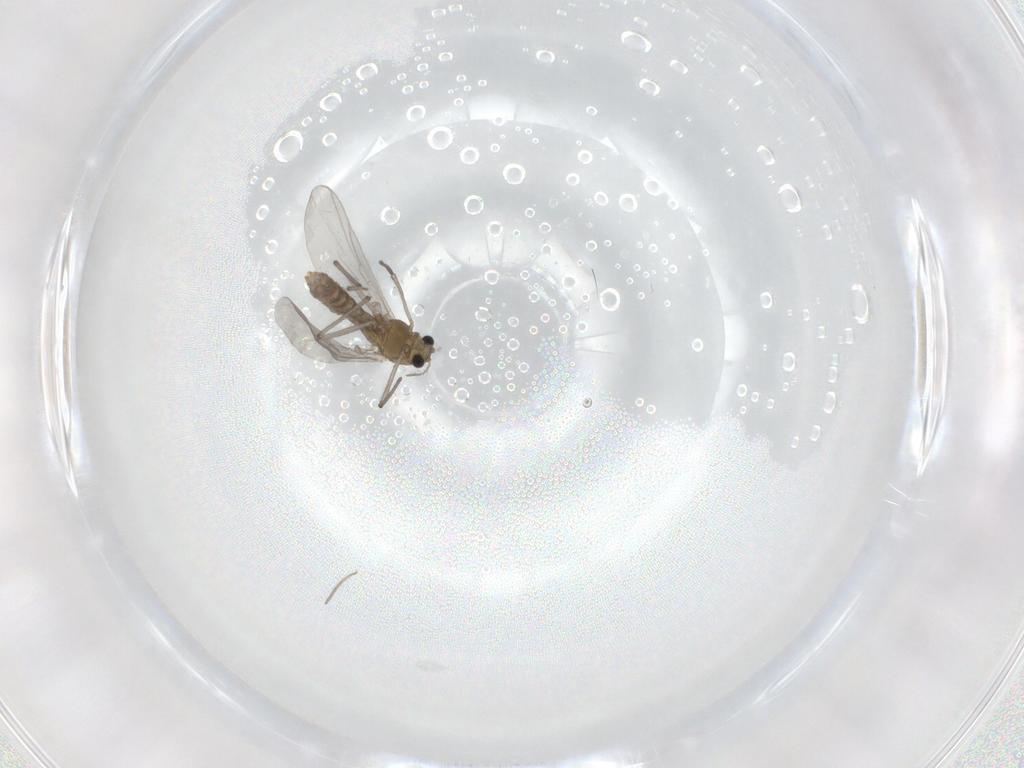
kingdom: Animalia
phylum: Arthropoda
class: Insecta
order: Diptera
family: Chironomidae
